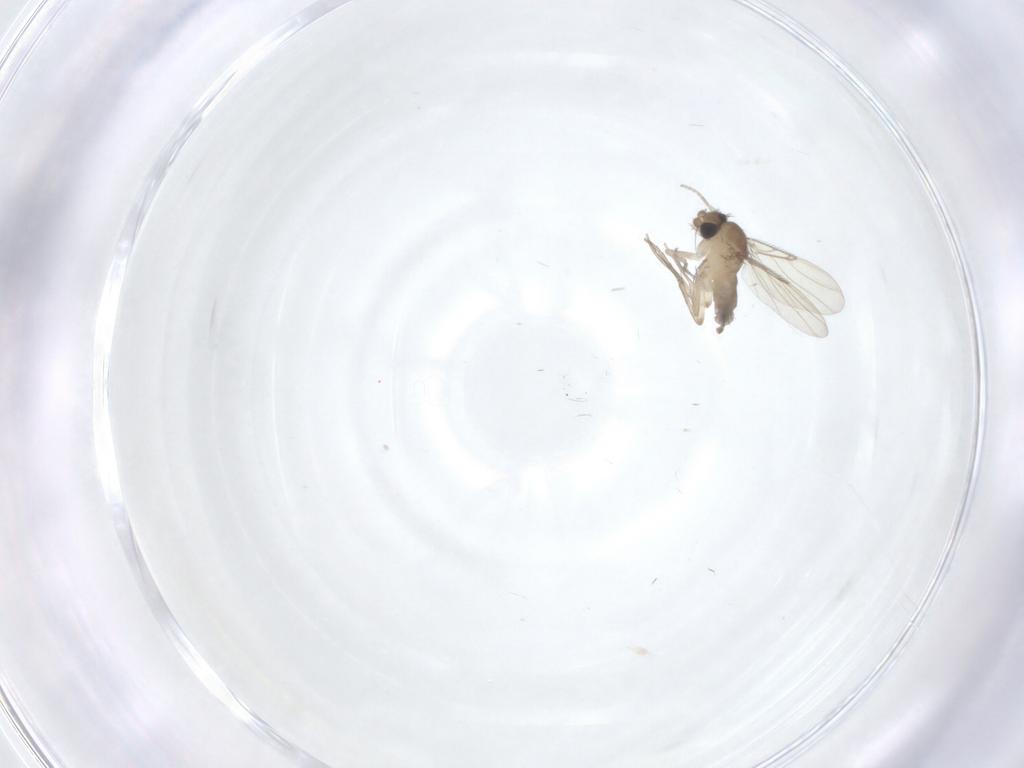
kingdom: Animalia
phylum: Arthropoda
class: Insecta
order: Diptera
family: Phoridae
